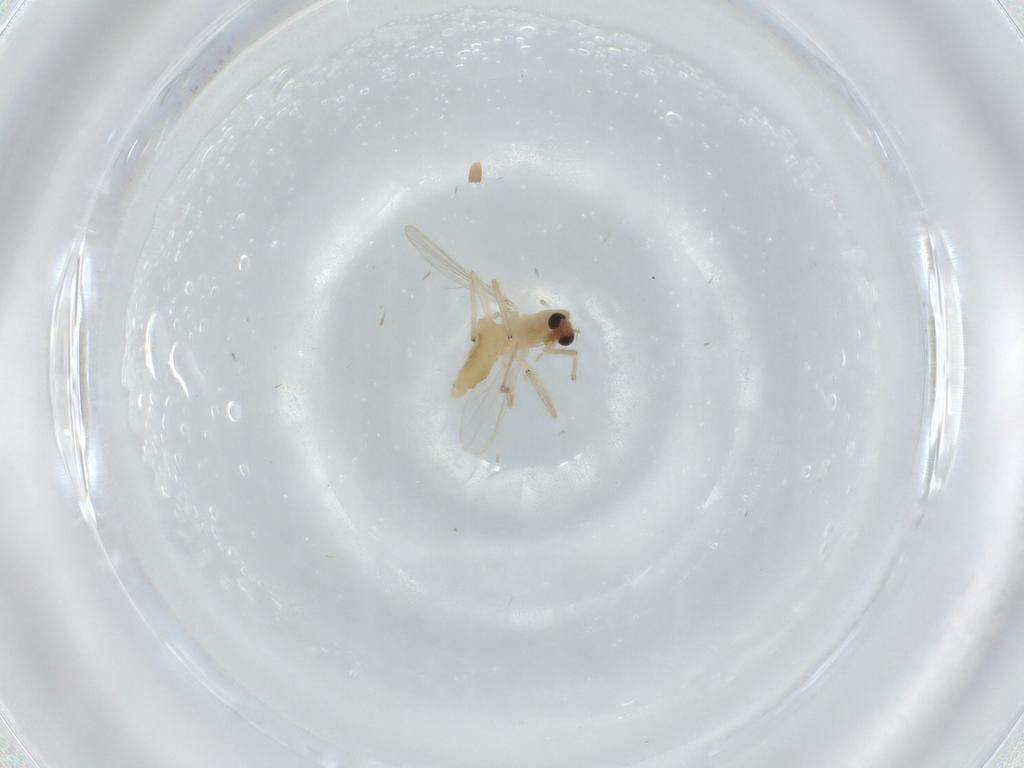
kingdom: Animalia
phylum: Arthropoda
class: Insecta
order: Diptera
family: Chironomidae
